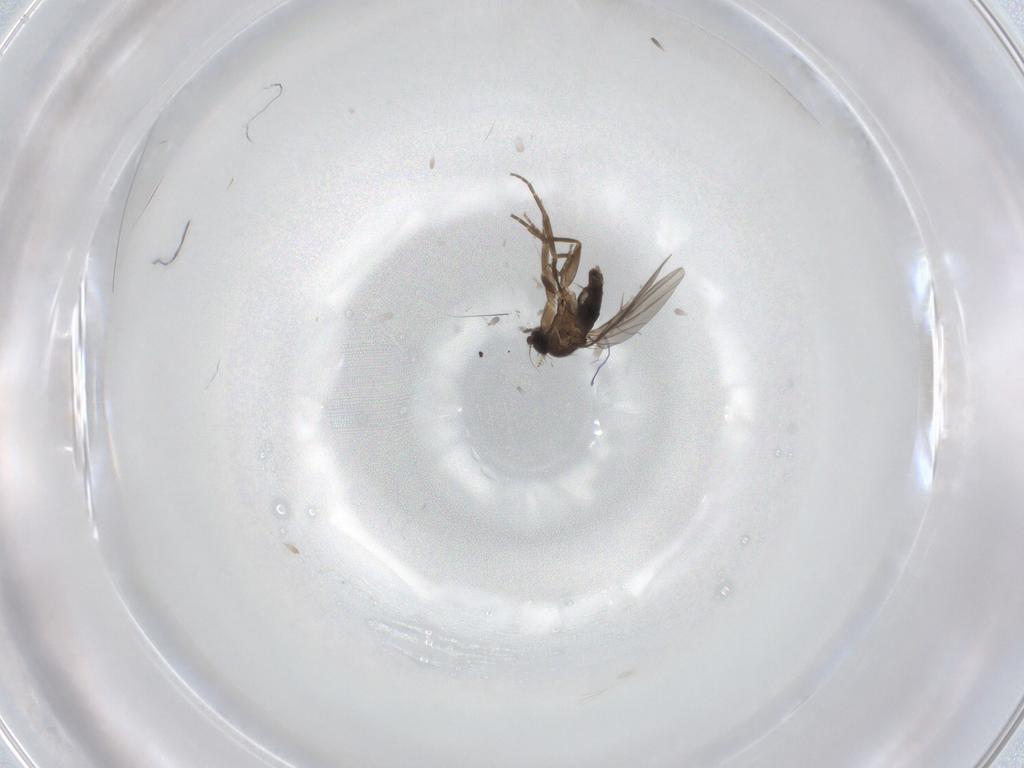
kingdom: Animalia
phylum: Arthropoda
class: Insecta
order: Diptera
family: Phoridae
